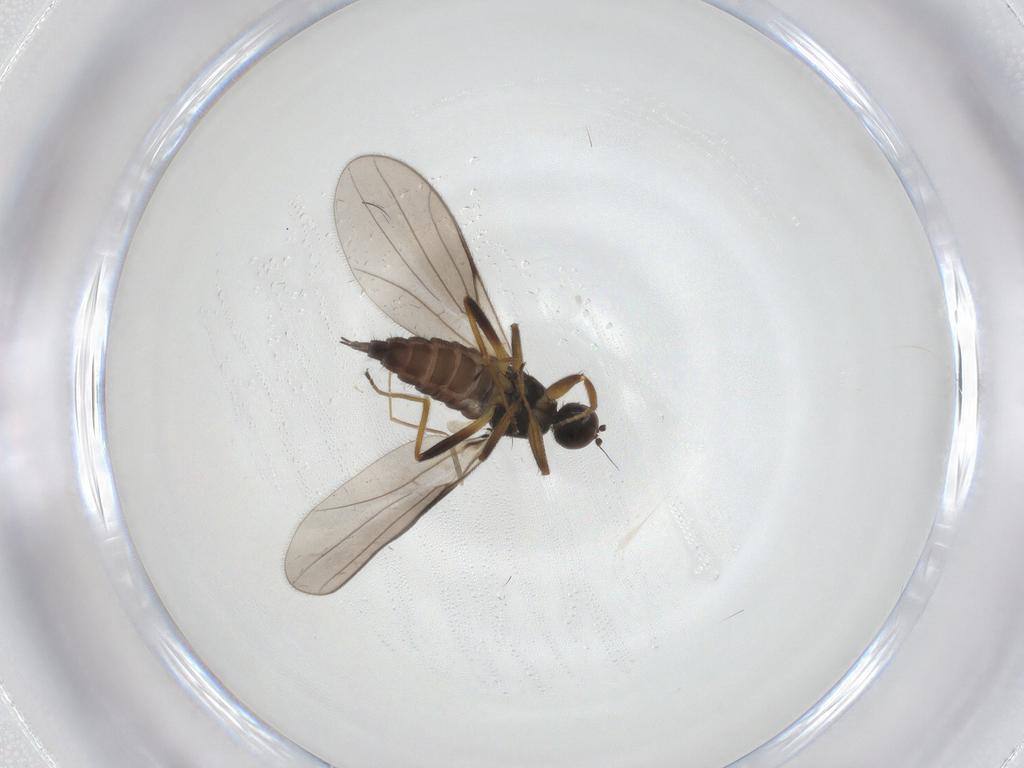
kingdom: Animalia
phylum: Arthropoda
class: Insecta
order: Diptera
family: Hybotidae
